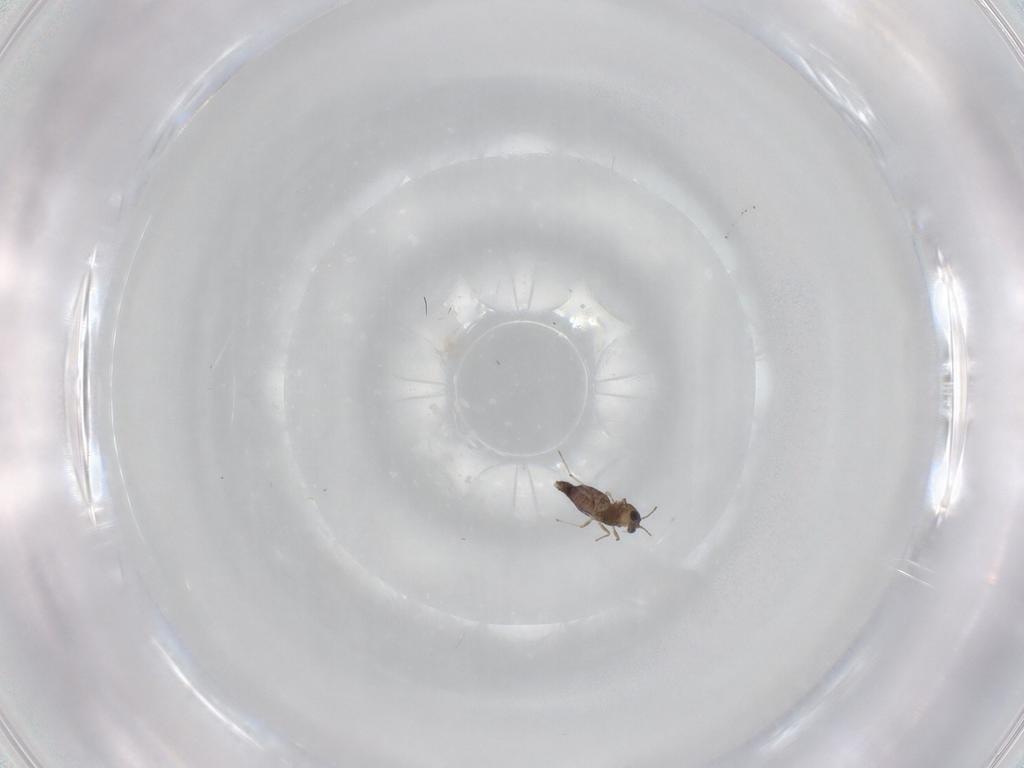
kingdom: Animalia
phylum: Arthropoda
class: Insecta
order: Diptera
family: Chironomidae
